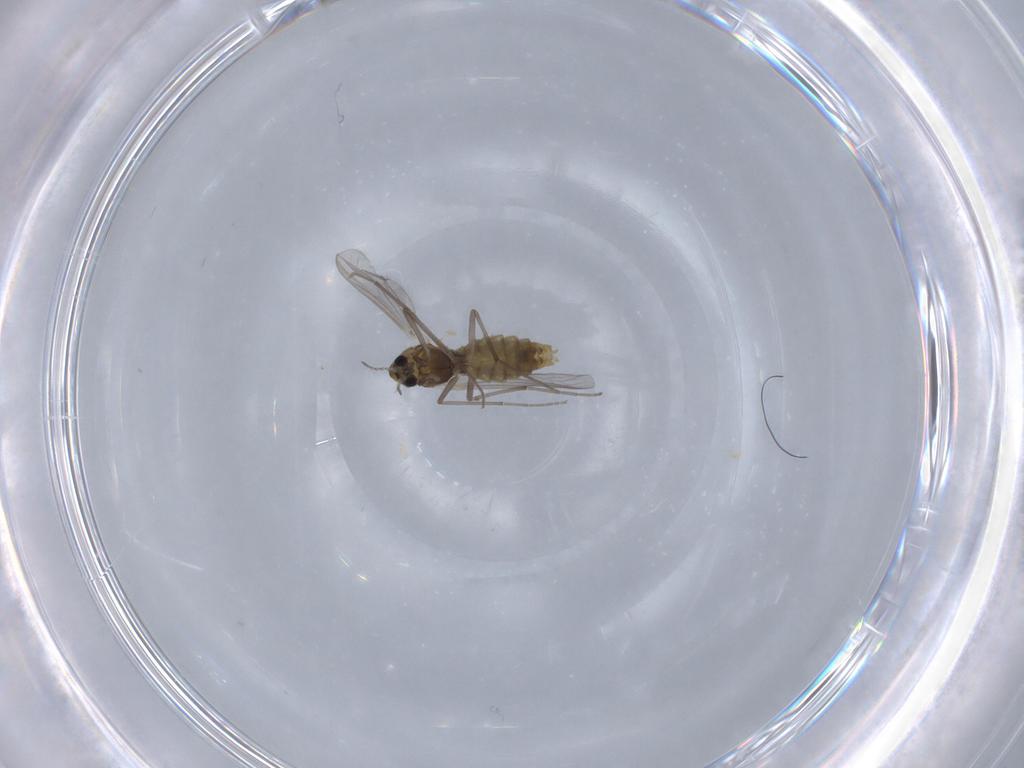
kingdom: Animalia
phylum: Arthropoda
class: Insecta
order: Diptera
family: Chironomidae
